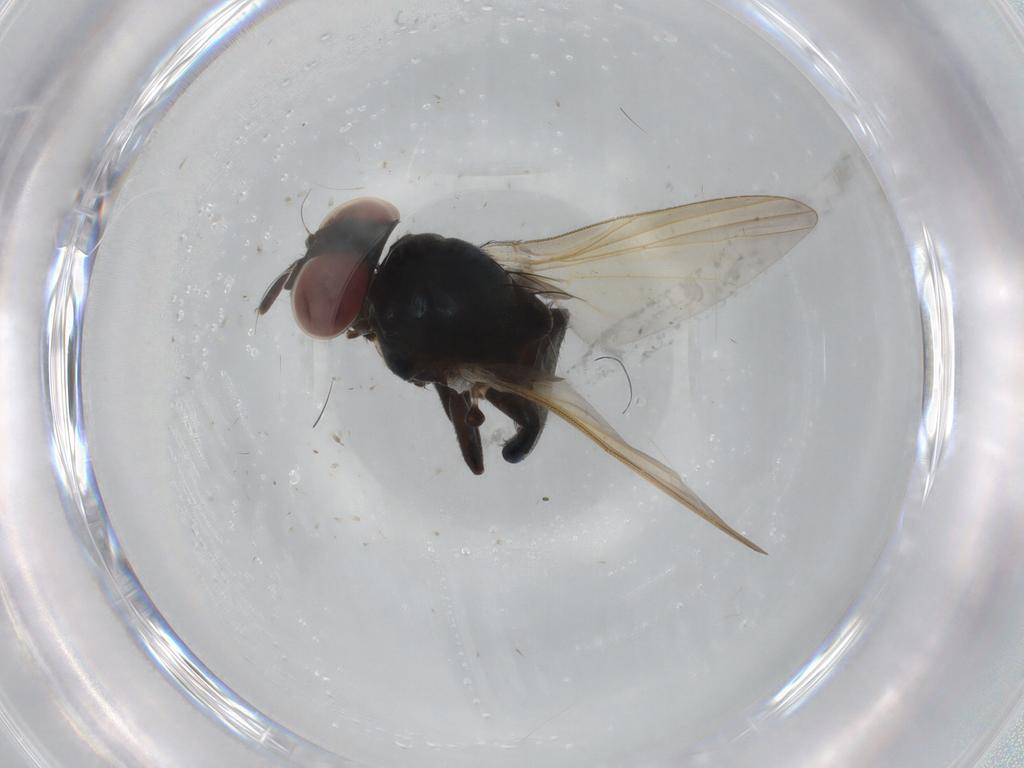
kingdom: Animalia
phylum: Arthropoda
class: Insecta
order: Diptera
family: Lonchaeidae
